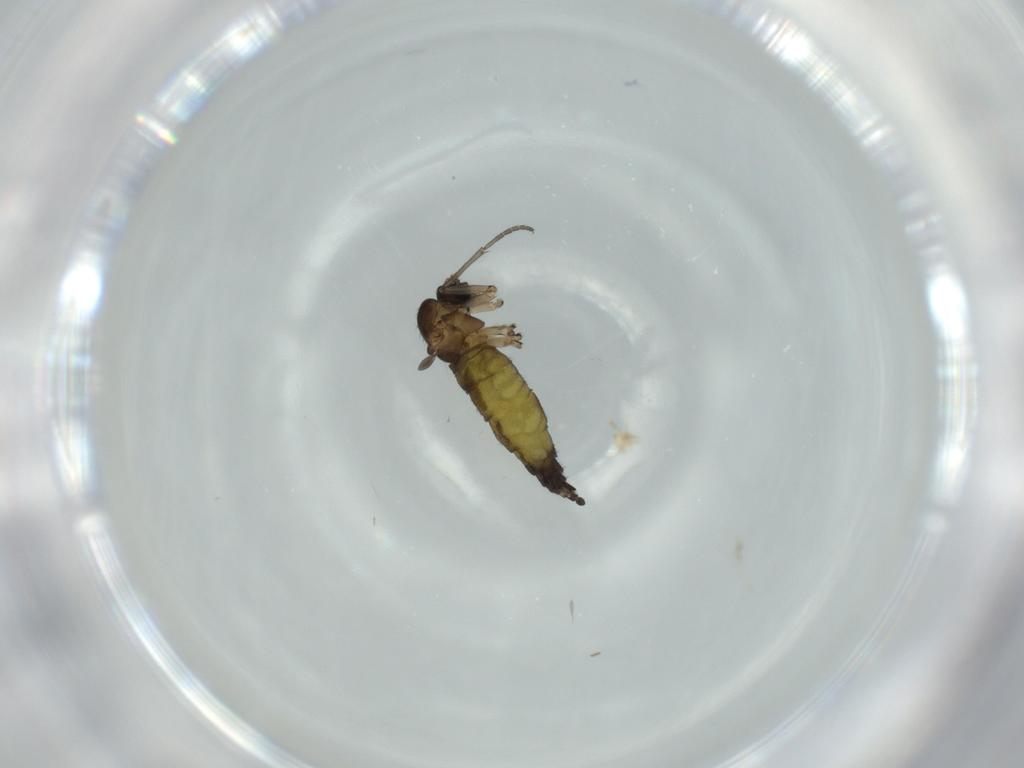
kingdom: Animalia
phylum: Arthropoda
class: Insecta
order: Diptera
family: Sciaridae
